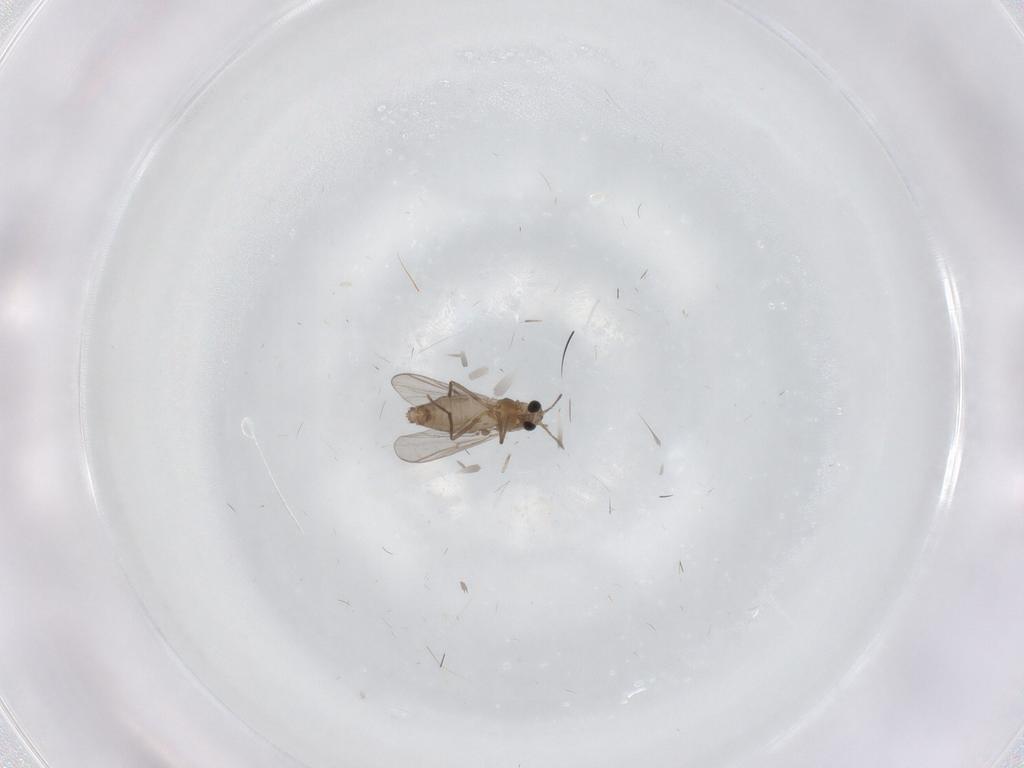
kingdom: Animalia
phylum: Arthropoda
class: Insecta
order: Diptera
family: Chironomidae
